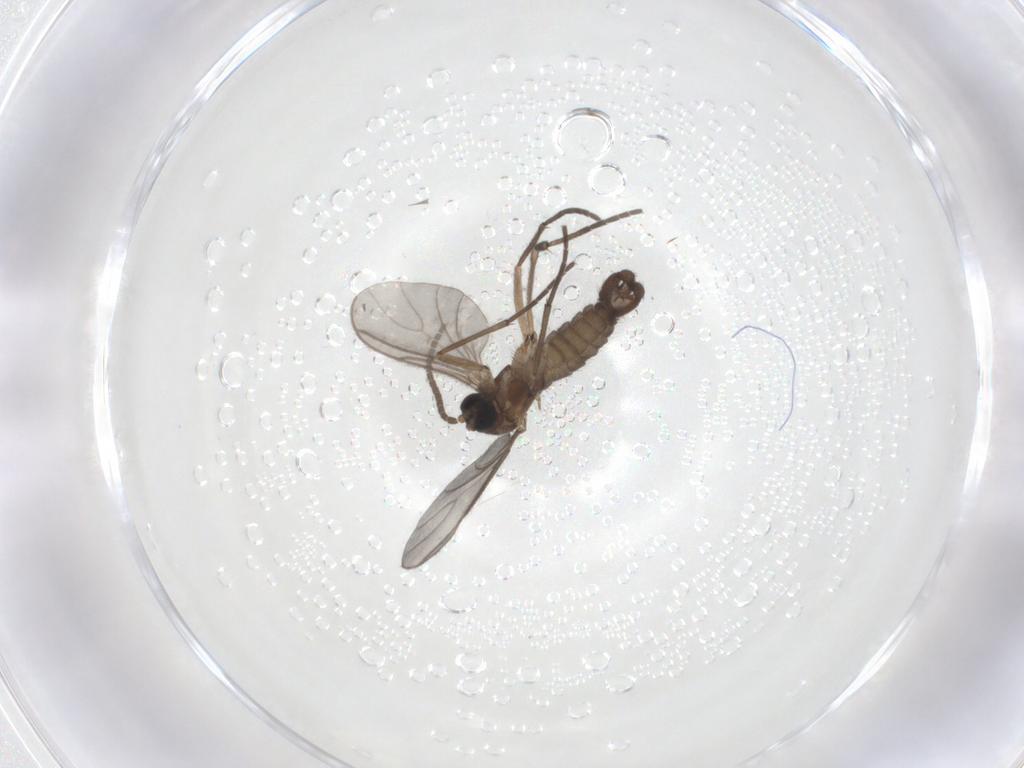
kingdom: Animalia
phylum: Arthropoda
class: Insecta
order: Diptera
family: Sciaridae
